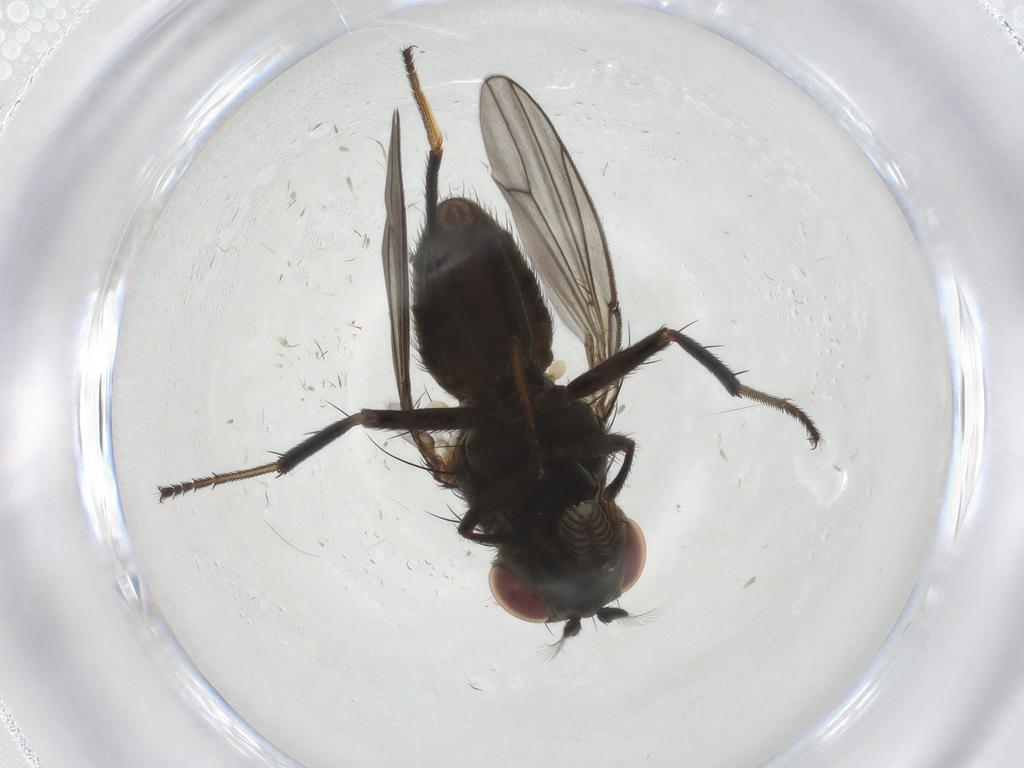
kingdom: Animalia
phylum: Arthropoda
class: Insecta
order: Diptera
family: Ephydridae
